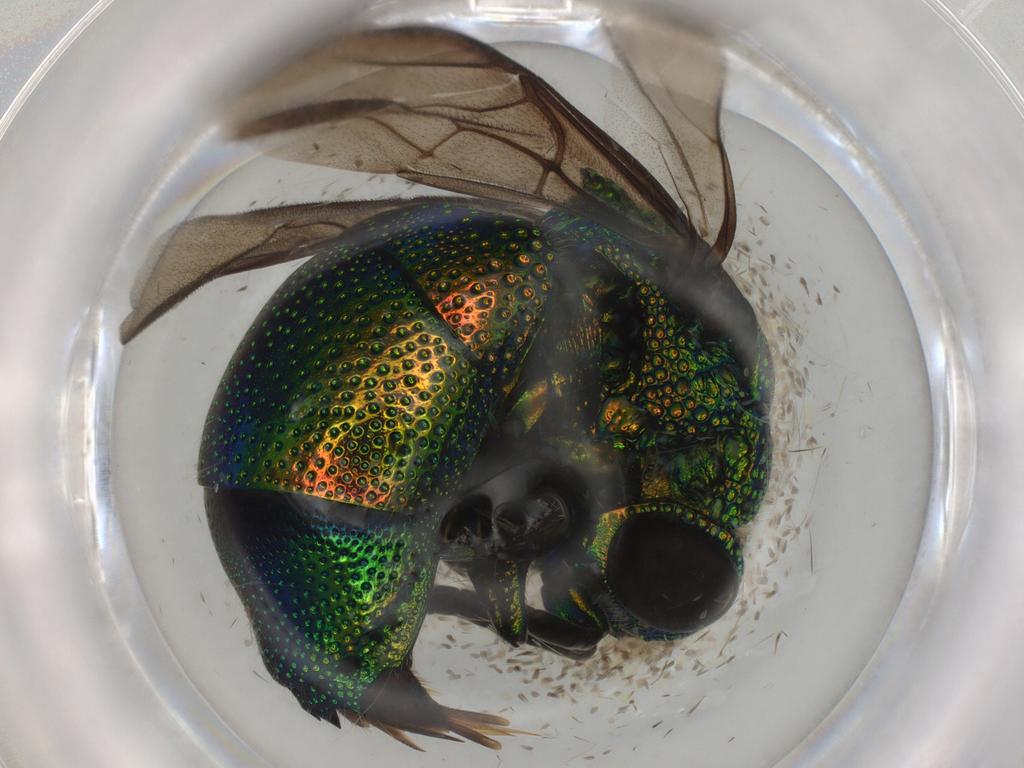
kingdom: Animalia
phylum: Arthropoda
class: Insecta
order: Hymenoptera
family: Chrysididae
